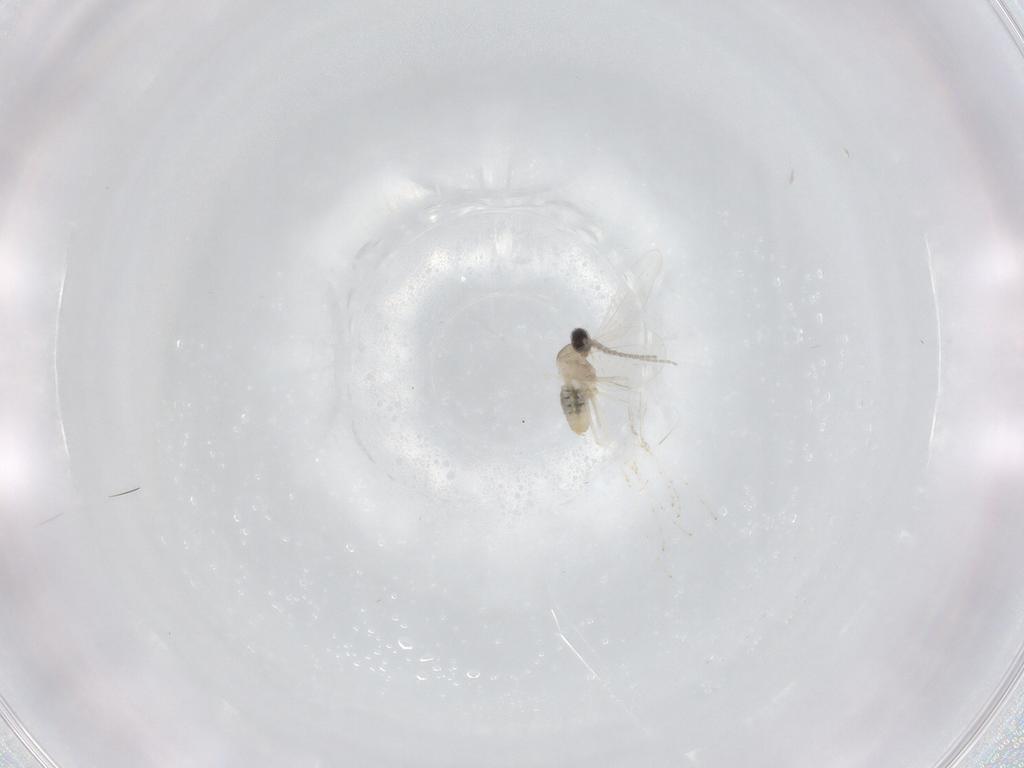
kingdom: Animalia
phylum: Arthropoda
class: Insecta
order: Diptera
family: Cecidomyiidae
